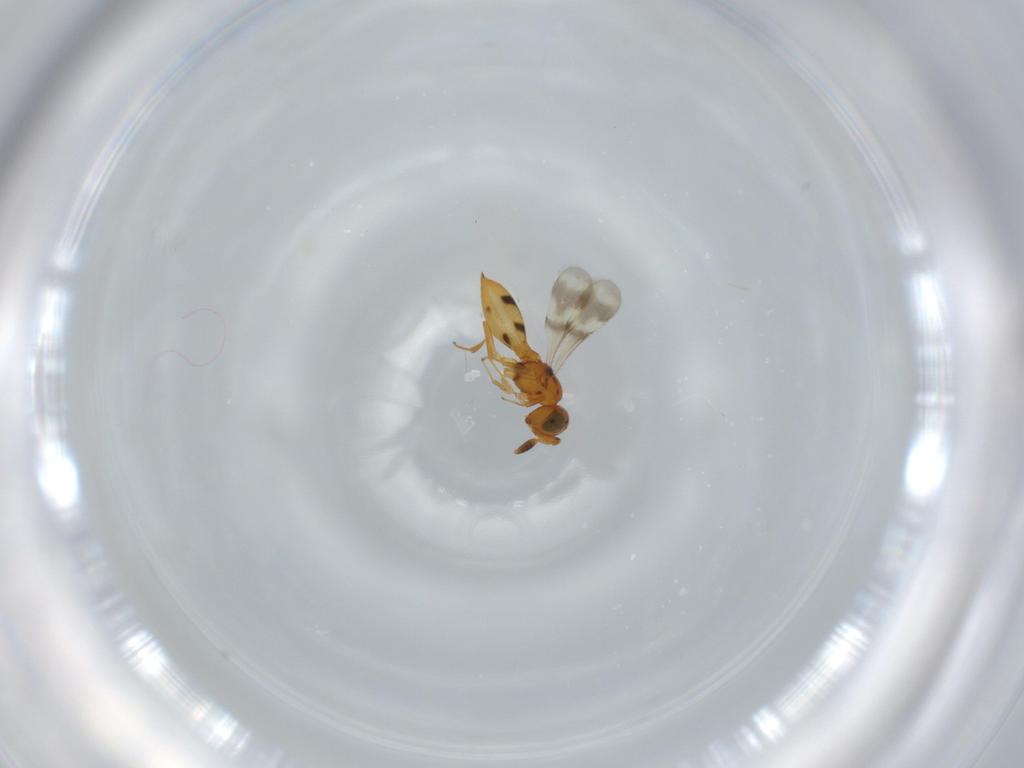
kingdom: Animalia
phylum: Arthropoda
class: Insecta
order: Hymenoptera
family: Scelionidae
